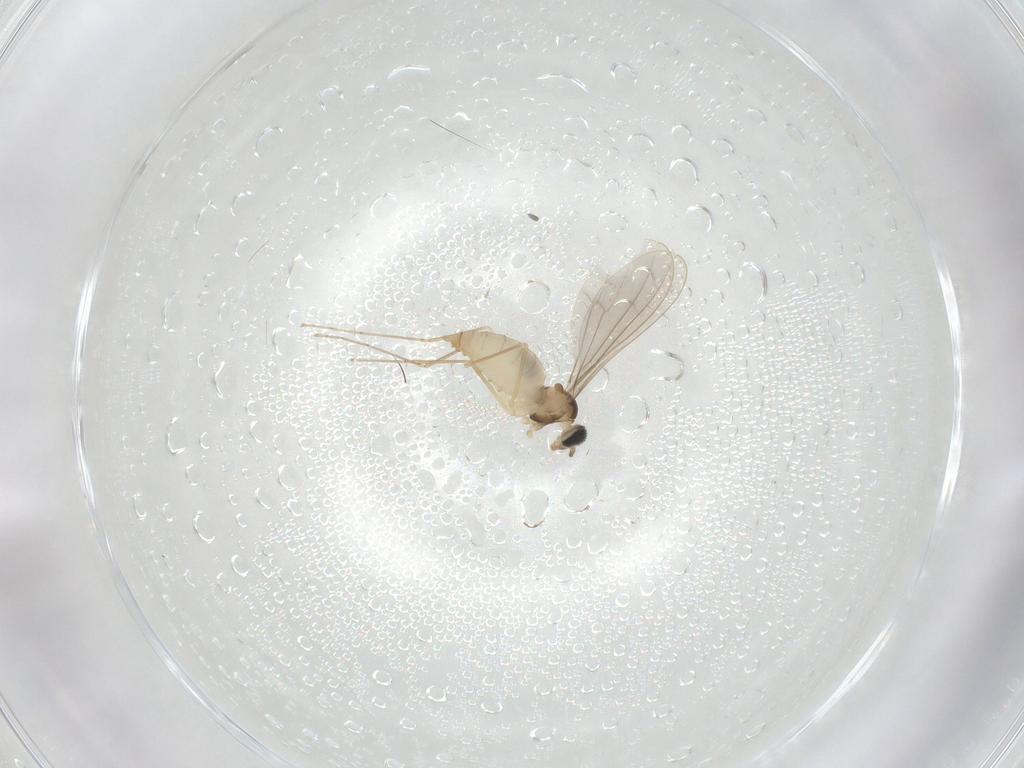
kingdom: Animalia
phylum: Arthropoda
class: Insecta
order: Diptera
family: Cecidomyiidae
